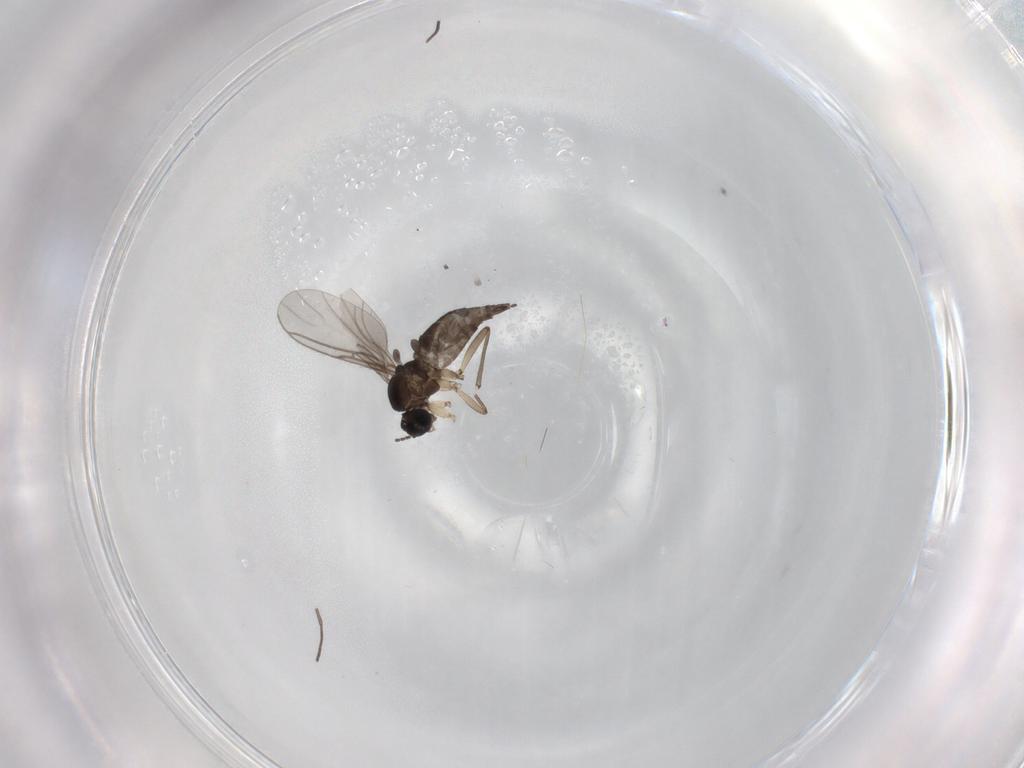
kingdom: Animalia
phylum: Arthropoda
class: Insecta
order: Diptera
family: Sciaridae
